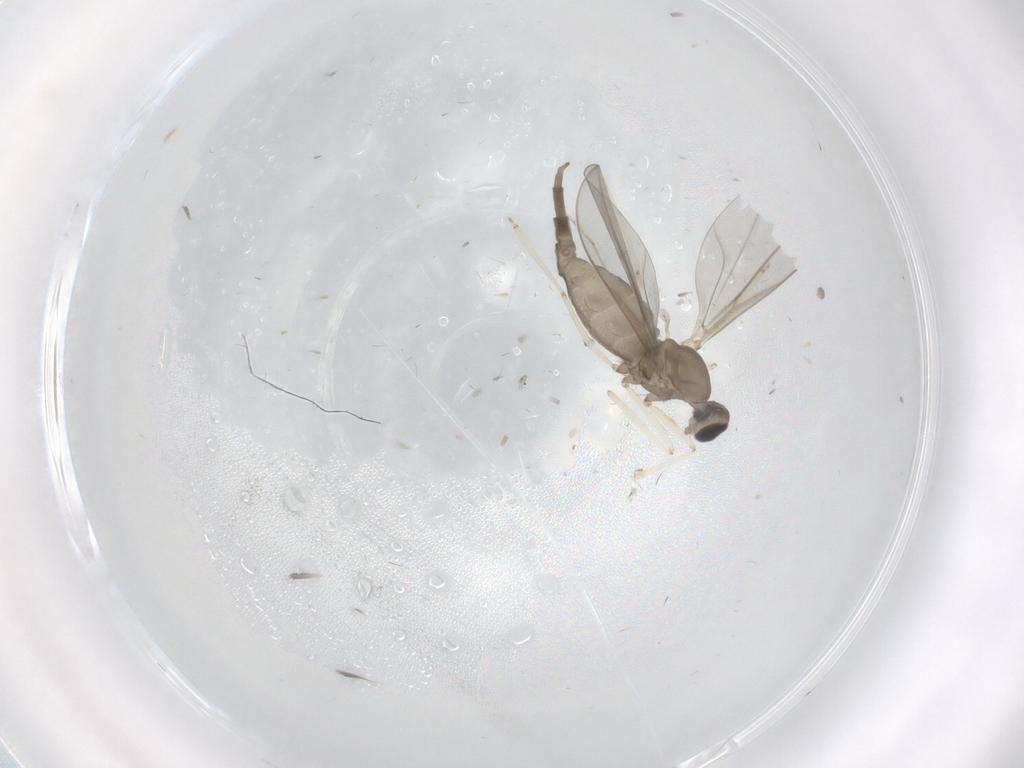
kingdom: Animalia
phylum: Arthropoda
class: Insecta
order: Diptera
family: Cecidomyiidae
